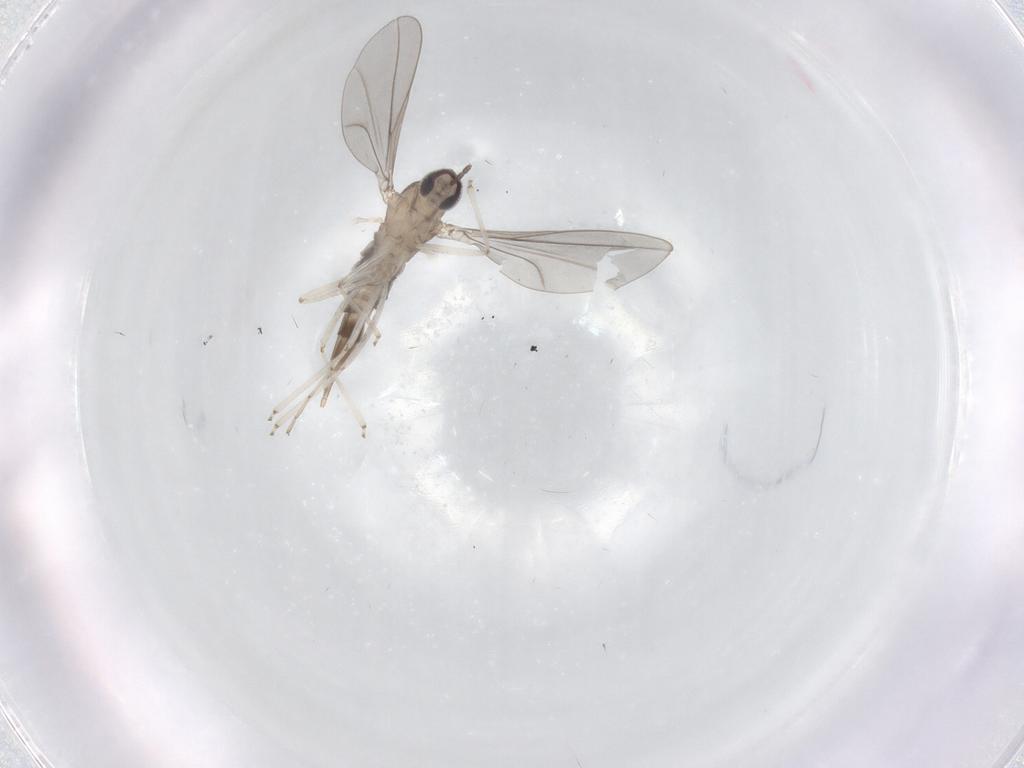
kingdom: Animalia
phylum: Arthropoda
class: Insecta
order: Diptera
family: Cecidomyiidae
